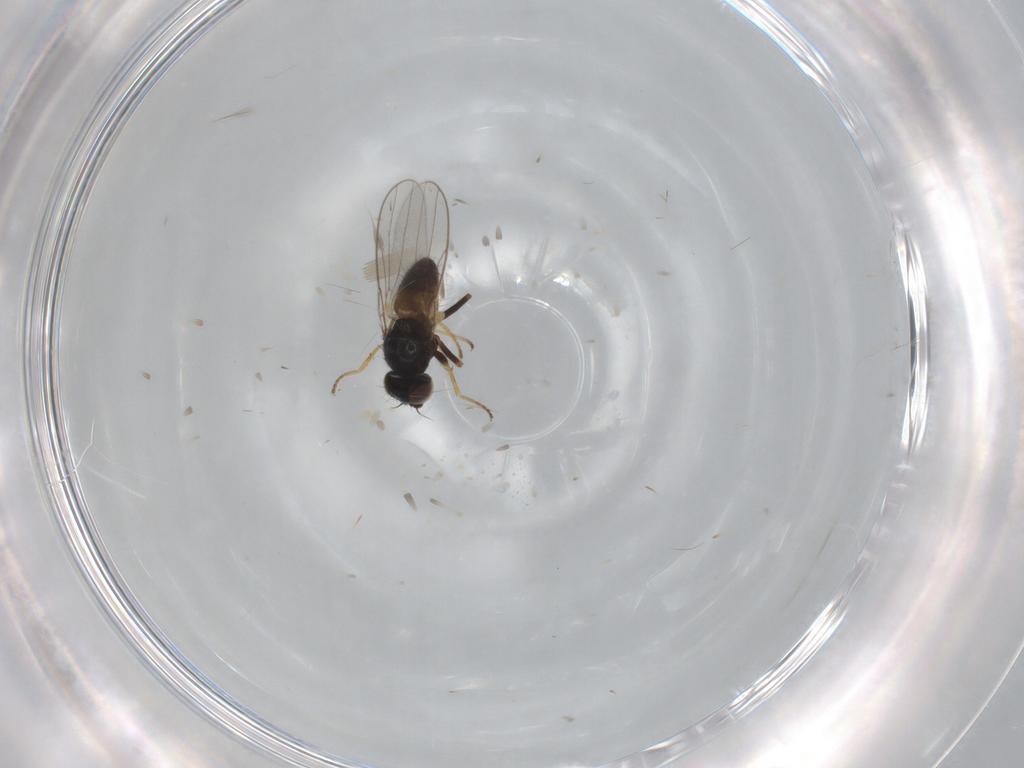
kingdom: Animalia
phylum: Arthropoda
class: Insecta
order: Diptera
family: Chloropidae
